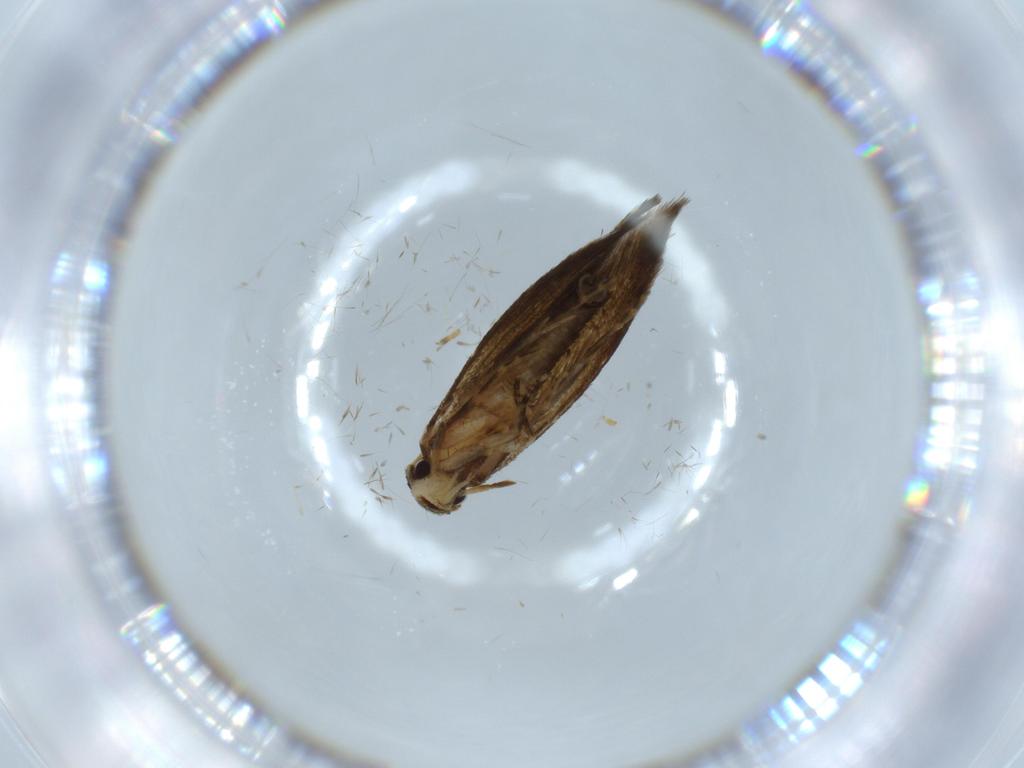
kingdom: Animalia
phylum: Arthropoda
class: Insecta
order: Lepidoptera
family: Tineidae
